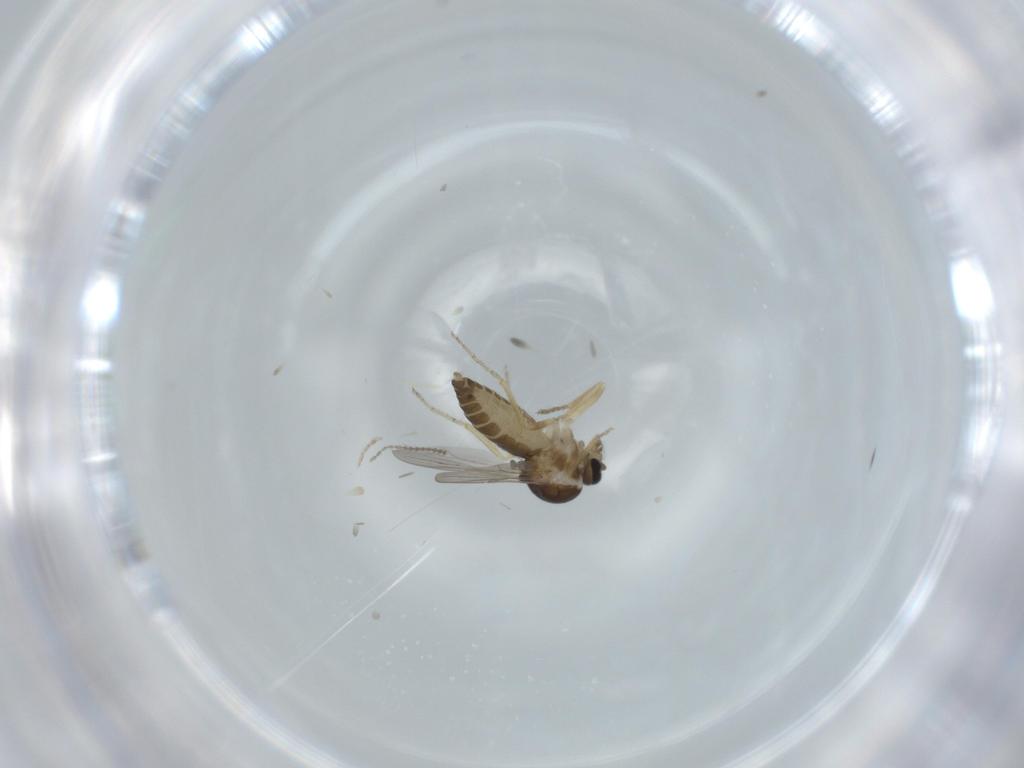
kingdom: Animalia
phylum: Arthropoda
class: Insecta
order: Diptera
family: Ceratopogonidae
